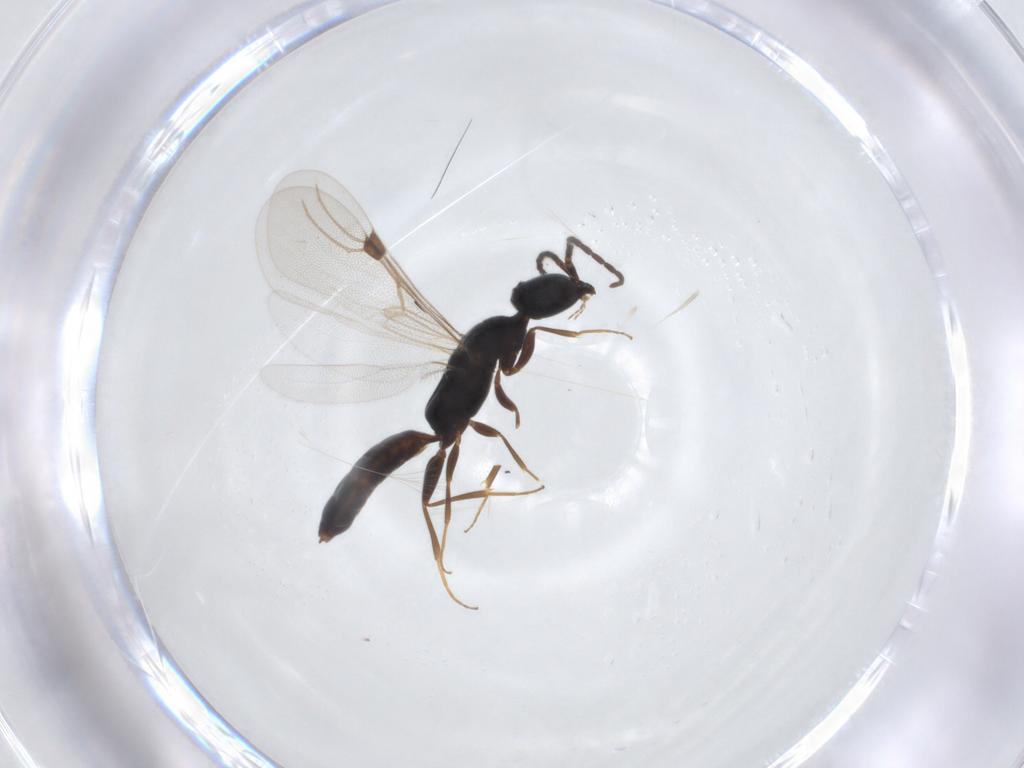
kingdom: Animalia
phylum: Arthropoda
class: Insecta
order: Hymenoptera
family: Bethylidae
